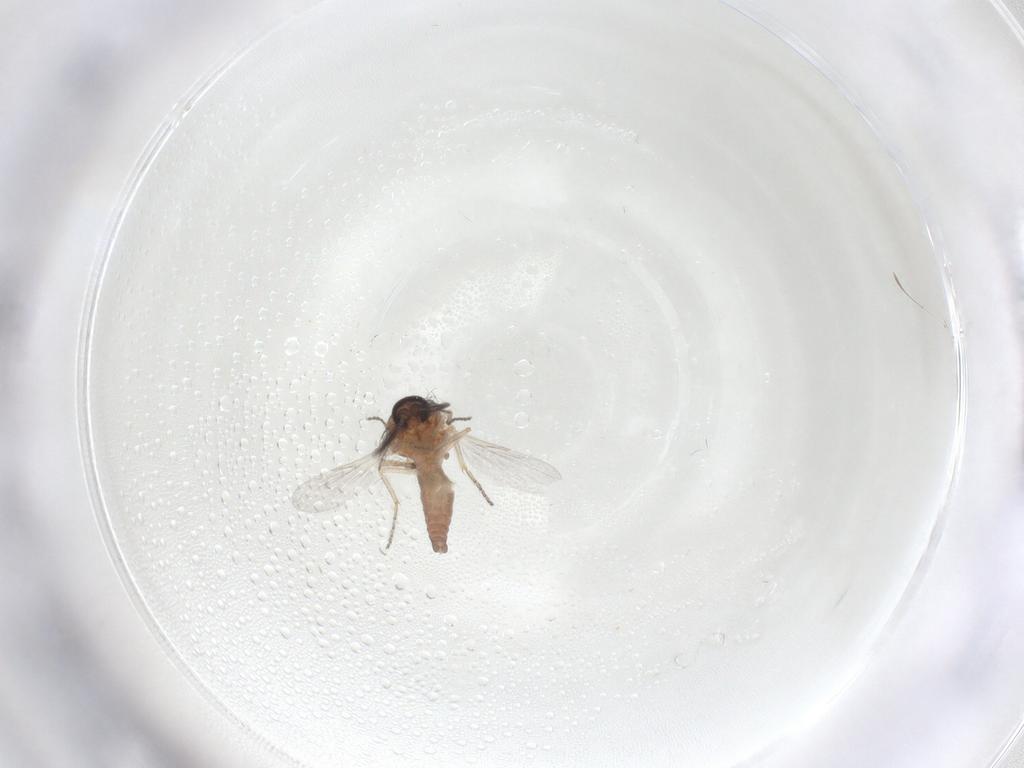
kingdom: Animalia
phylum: Arthropoda
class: Insecta
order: Diptera
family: Ceratopogonidae
